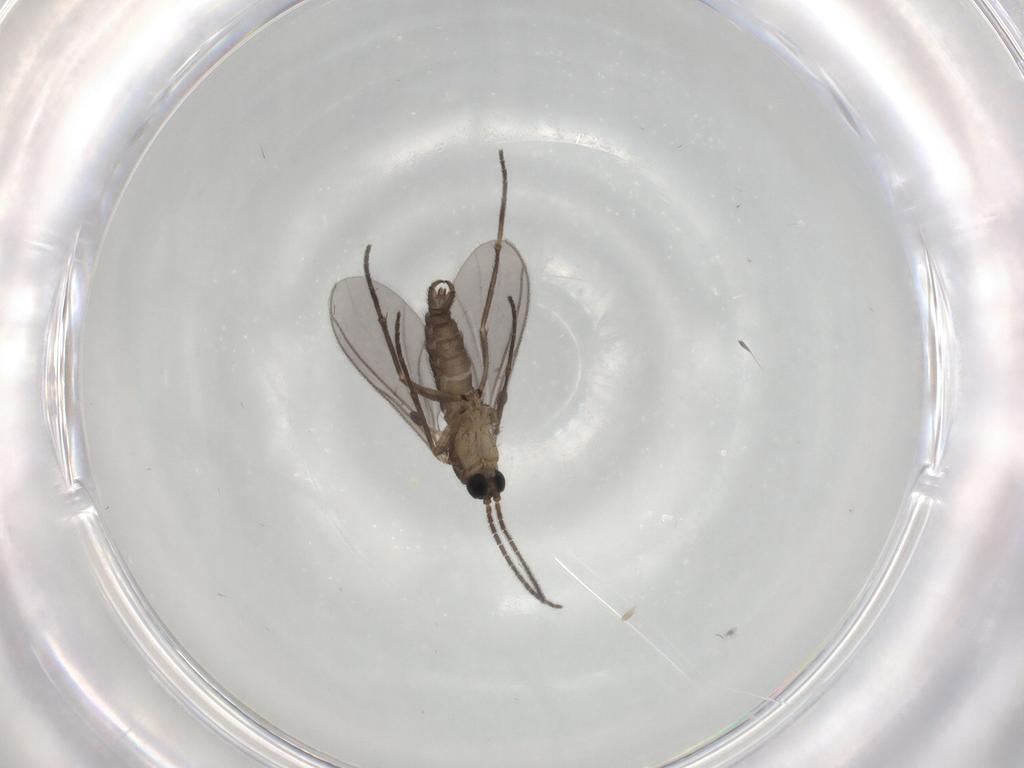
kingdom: Animalia
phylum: Arthropoda
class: Insecta
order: Diptera
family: Sciaridae
